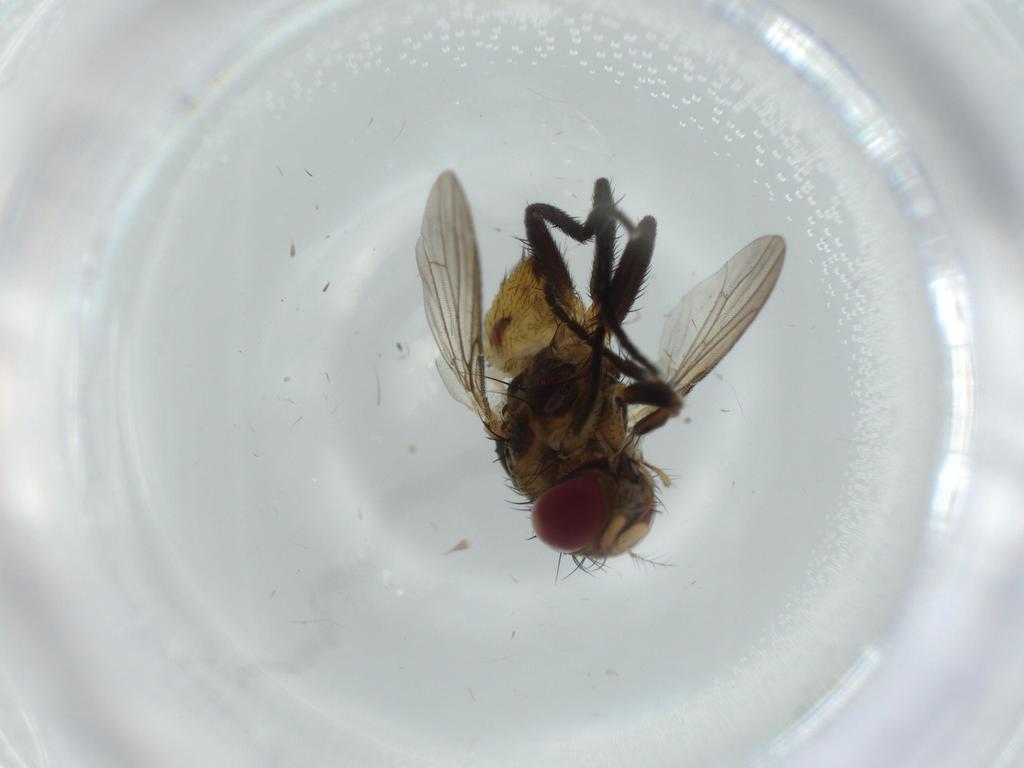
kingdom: Animalia
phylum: Arthropoda
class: Insecta
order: Diptera
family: Anthomyiidae
